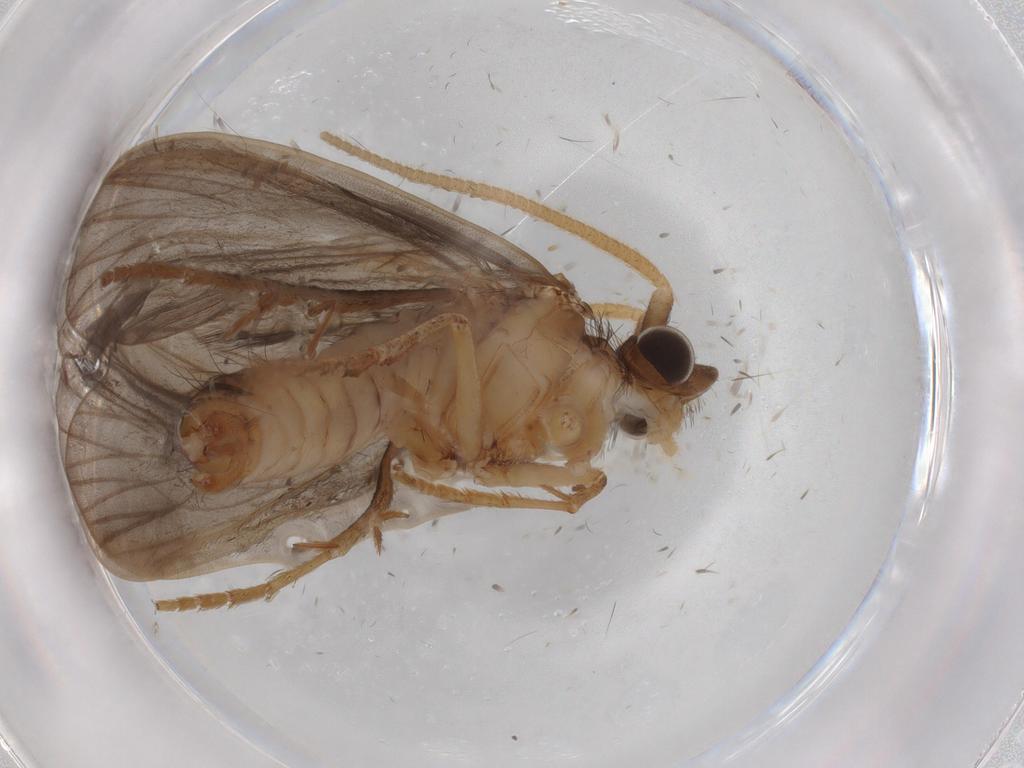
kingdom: Animalia
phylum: Arthropoda
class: Insecta
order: Trichoptera
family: Lepidostomatidae
